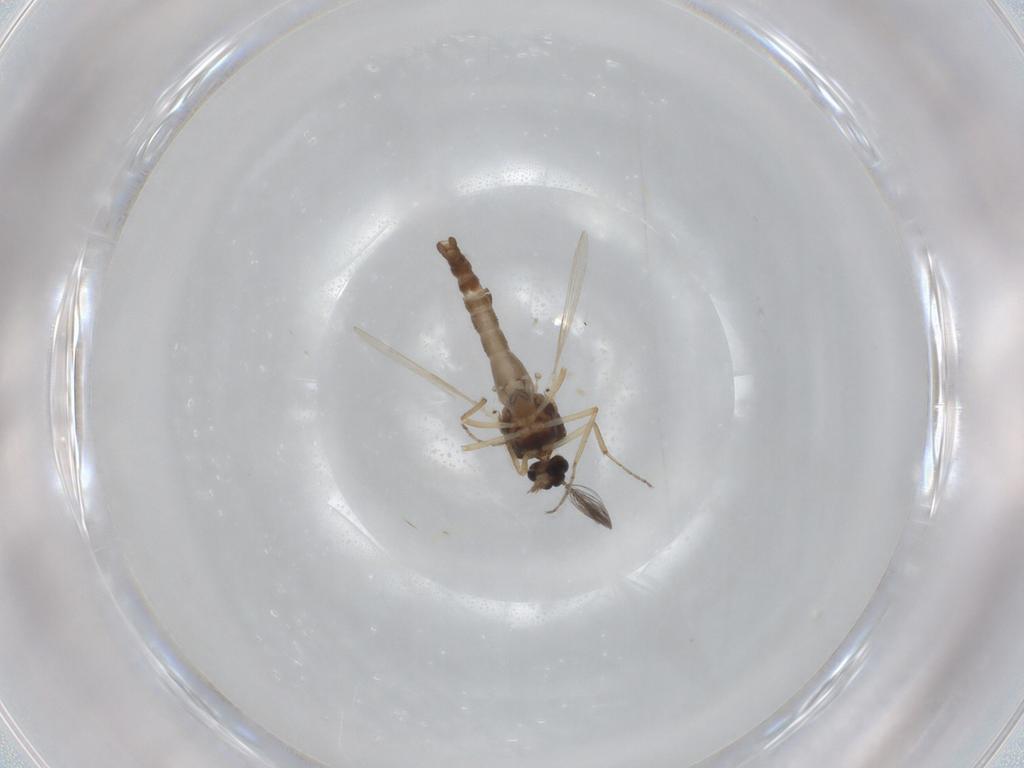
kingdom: Animalia
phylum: Arthropoda
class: Insecta
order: Diptera
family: Ceratopogonidae
